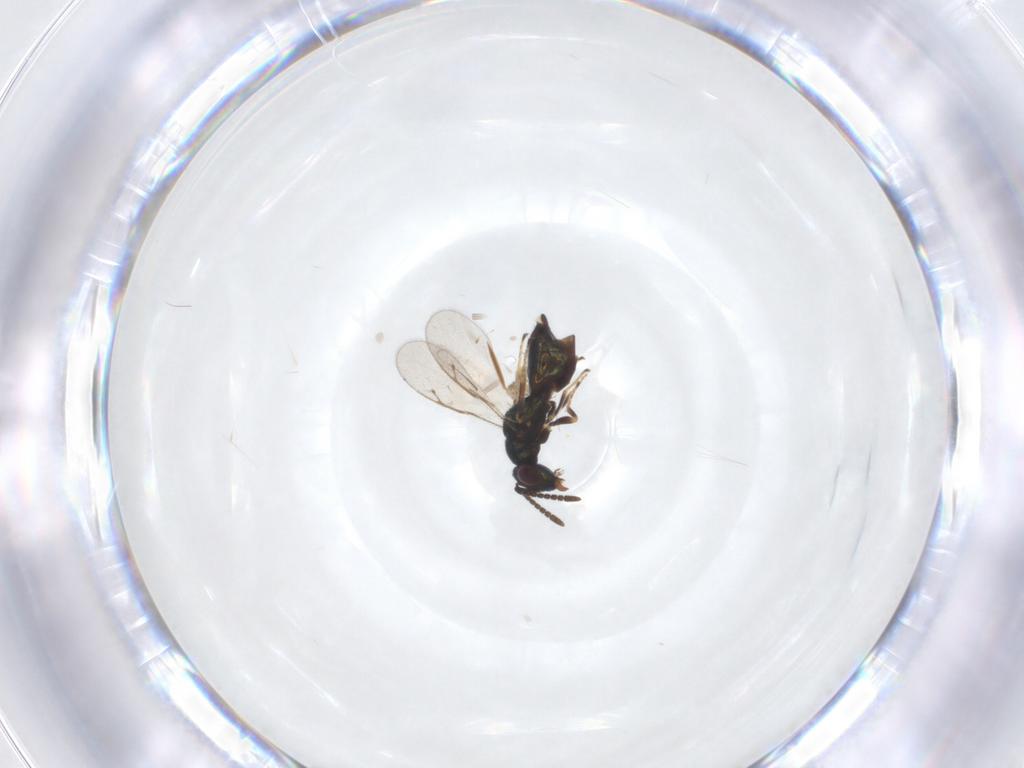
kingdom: Animalia
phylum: Arthropoda
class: Insecta
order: Hymenoptera
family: Pteromalidae
